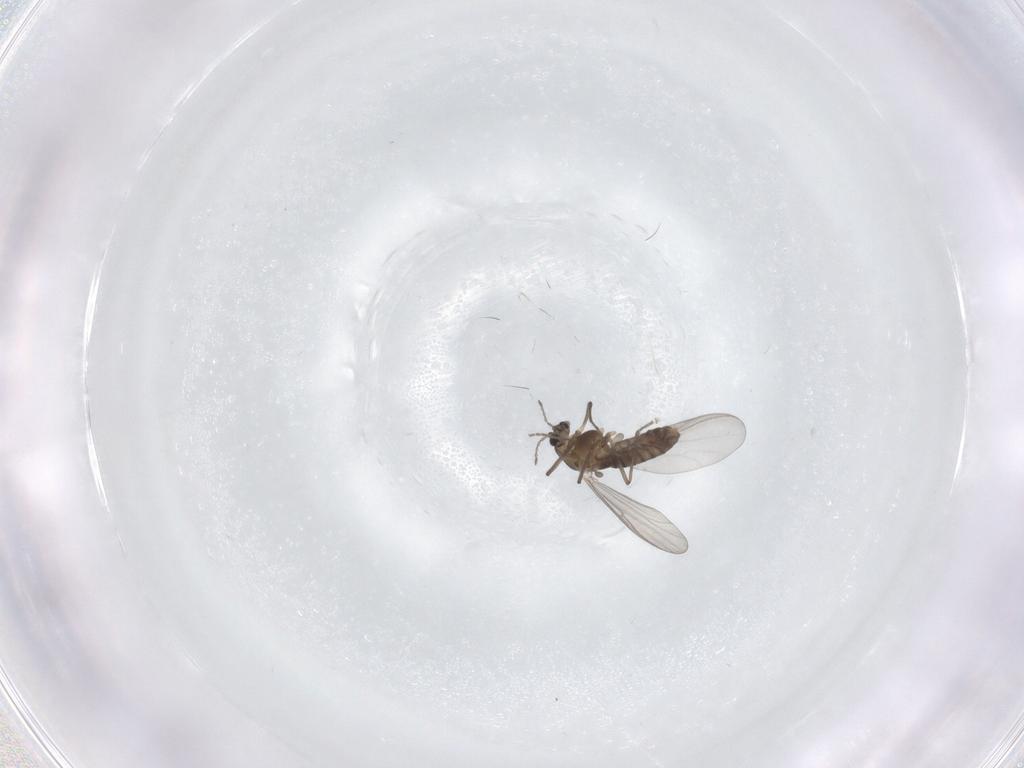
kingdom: Animalia
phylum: Arthropoda
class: Insecta
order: Diptera
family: Chironomidae
